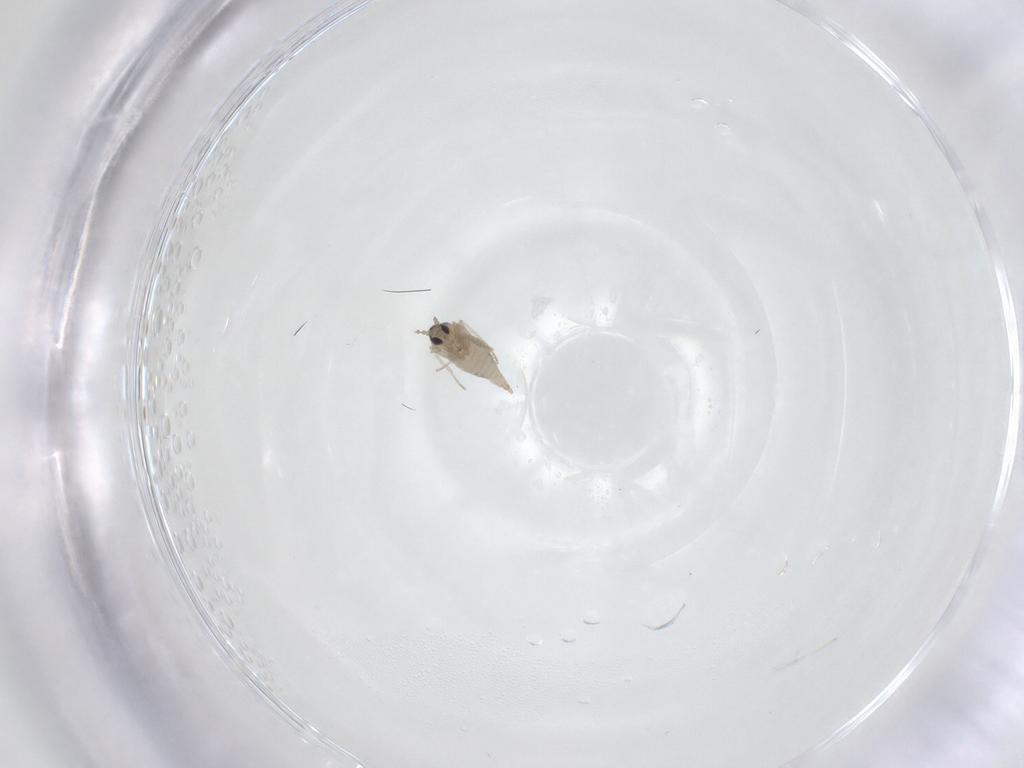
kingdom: Animalia
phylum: Arthropoda
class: Insecta
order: Diptera
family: Cecidomyiidae
